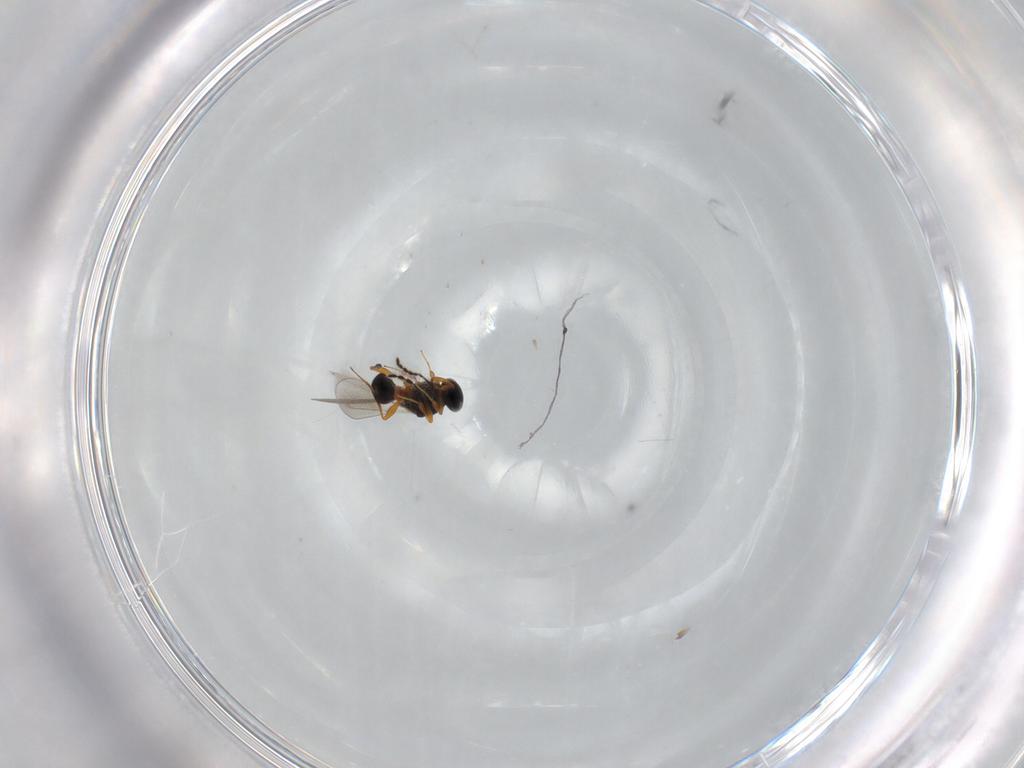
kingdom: Animalia
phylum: Arthropoda
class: Insecta
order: Hymenoptera
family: Platygastridae
